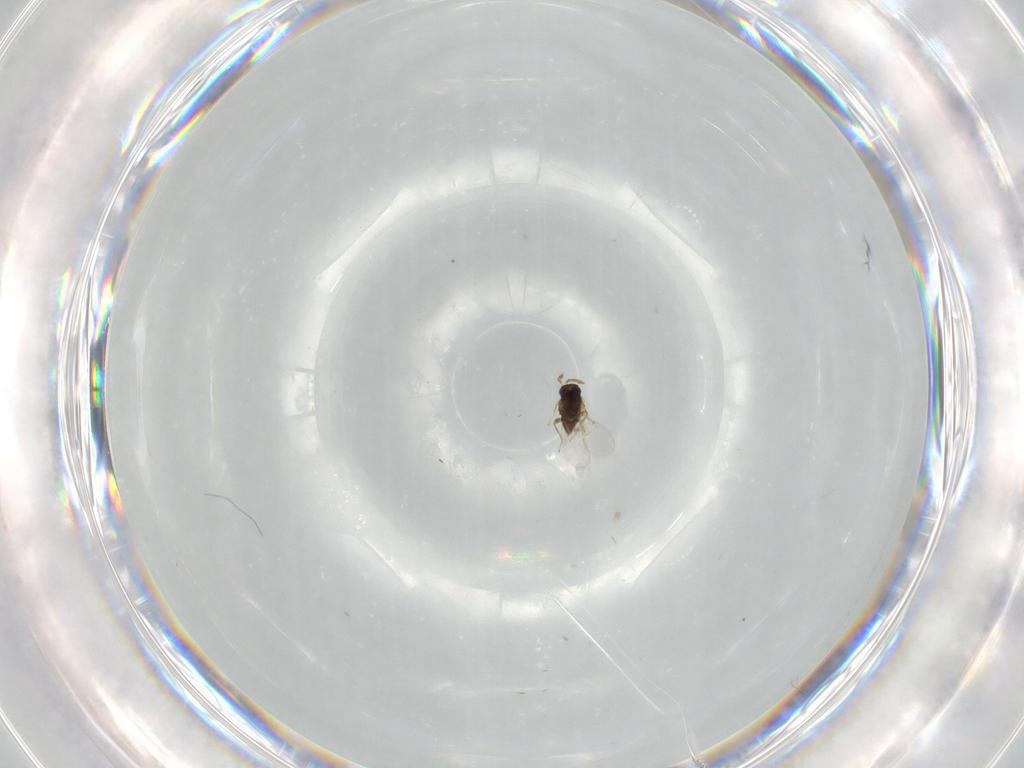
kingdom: Animalia
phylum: Arthropoda
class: Insecta
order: Hymenoptera
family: Encyrtidae
